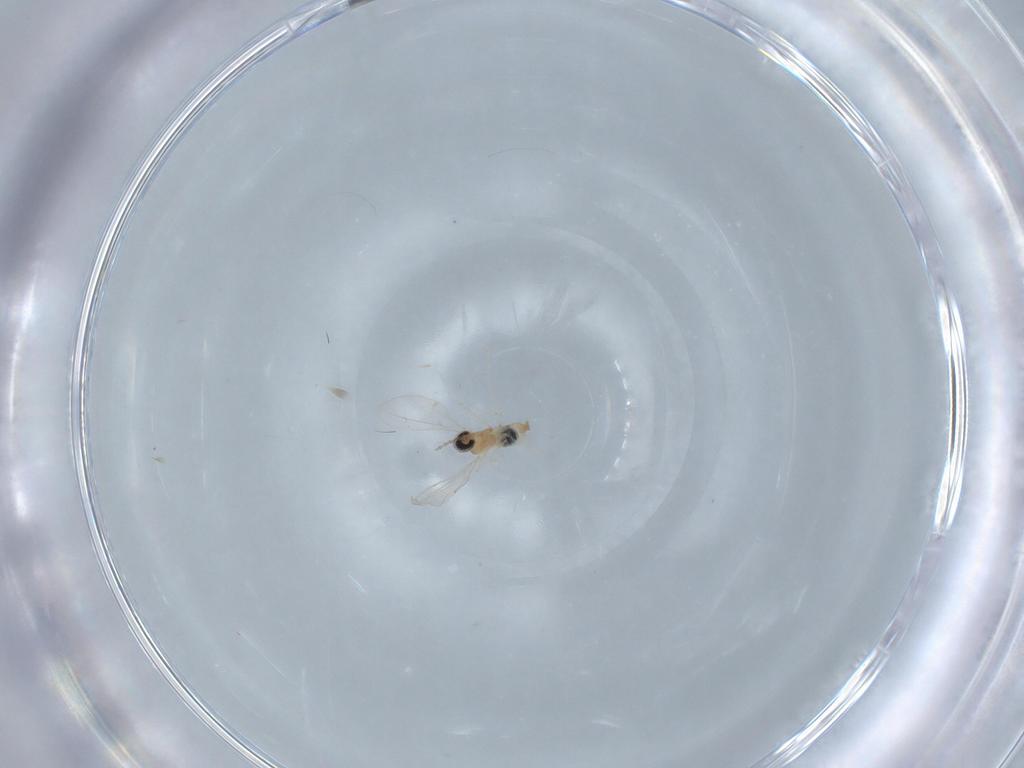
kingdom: Animalia
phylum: Arthropoda
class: Insecta
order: Diptera
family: Cecidomyiidae
